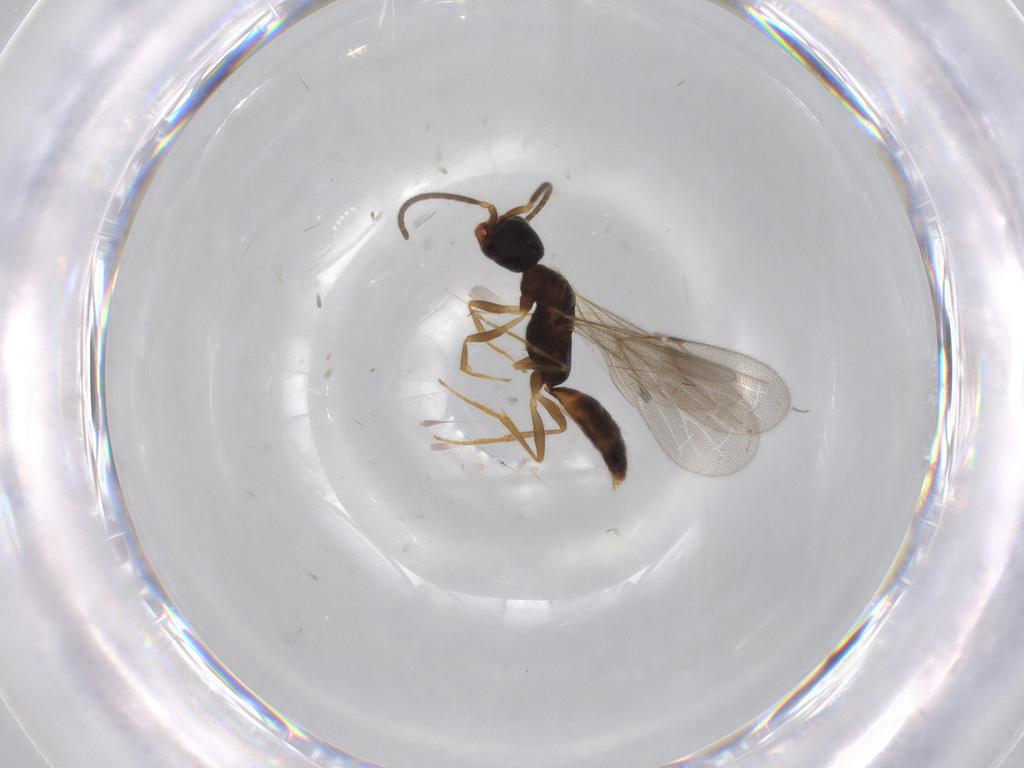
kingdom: Animalia
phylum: Arthropoda
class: Insecta
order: Hymenoptera
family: Bethylidae
